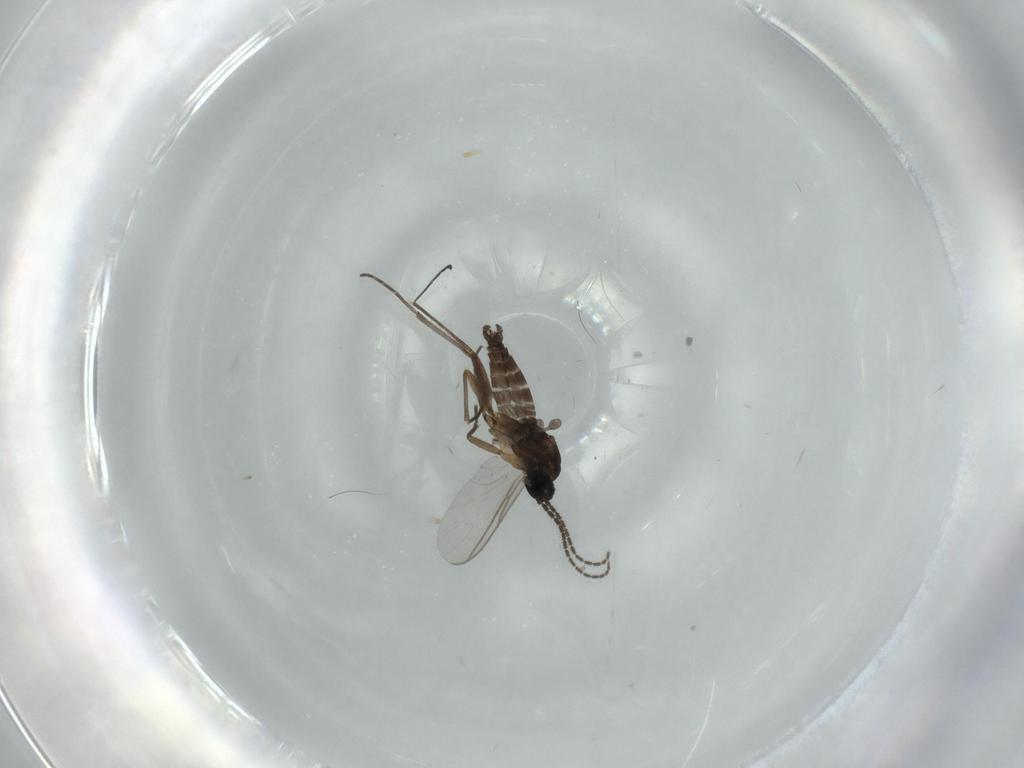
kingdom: Animalia
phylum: Arthropoda
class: Insecta
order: Diptera
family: Sciaridae
